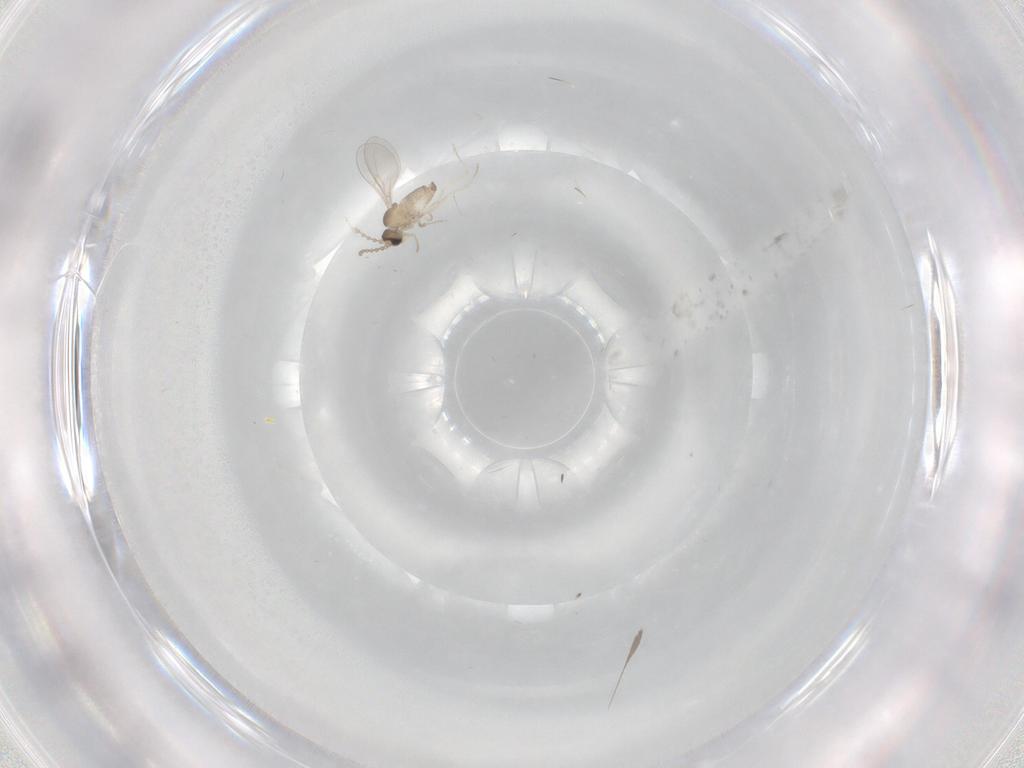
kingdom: Animalia
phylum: Arthropoda
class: Insecta
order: Diptera
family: Cecidomyiidae
